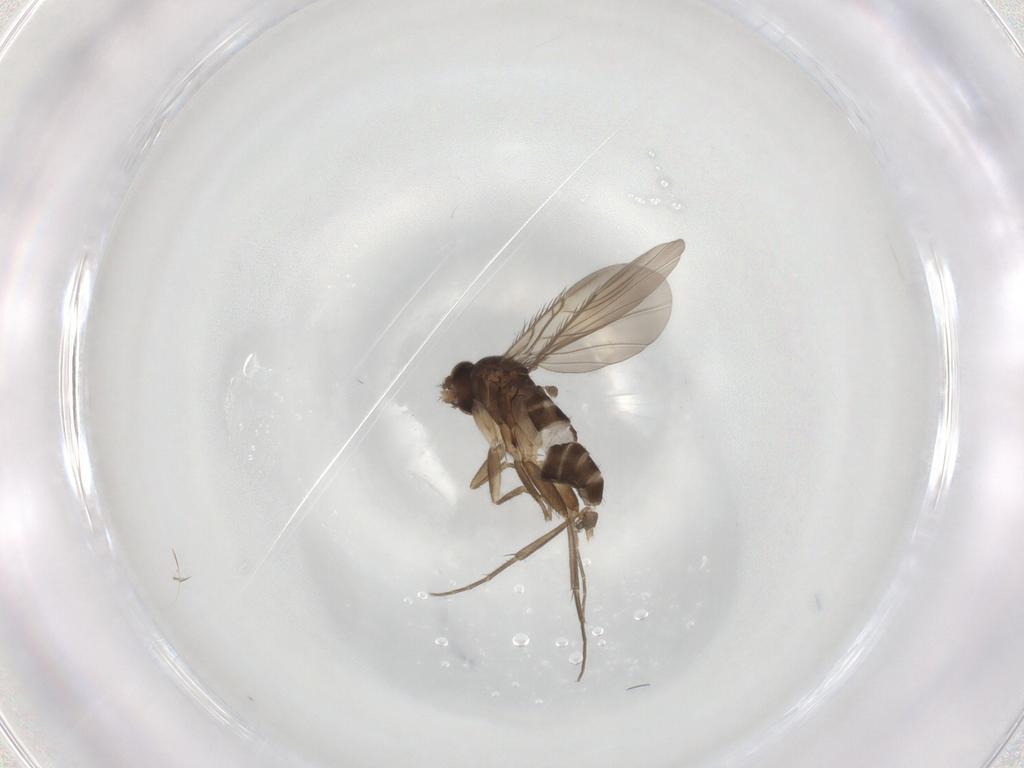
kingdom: Animalia
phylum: Arthropoda
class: Insecta
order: Diptera
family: Phoridae
